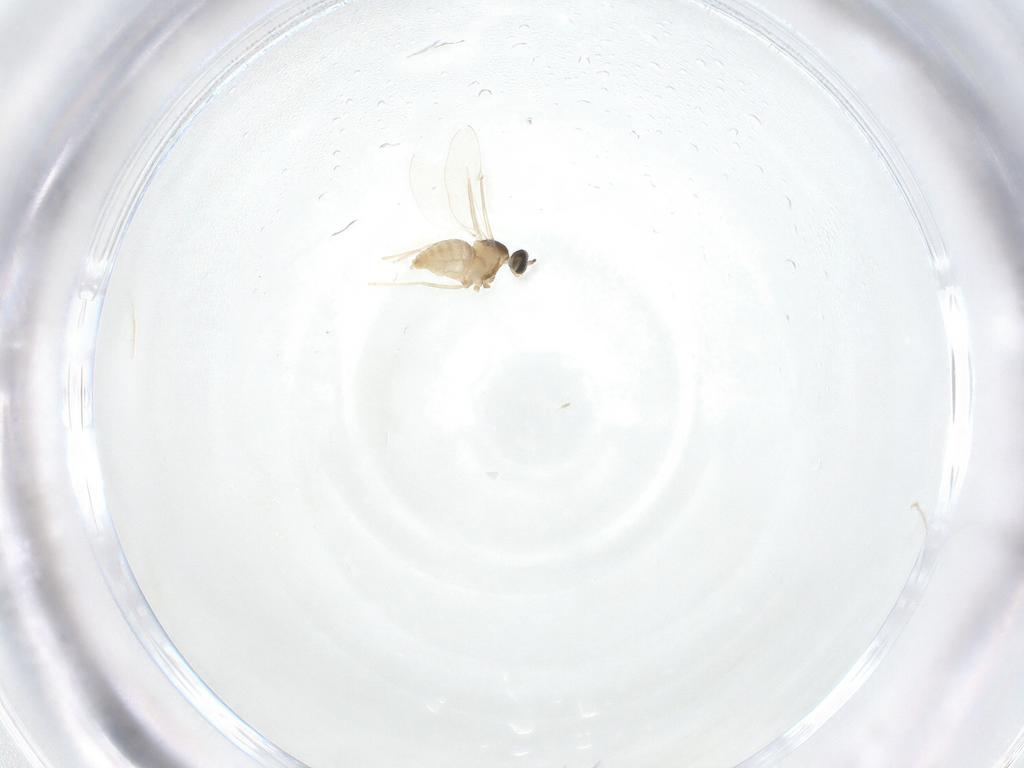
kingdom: Animalia
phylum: Arthropoda
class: Insecta
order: Diptera
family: Cecidomyiidae
